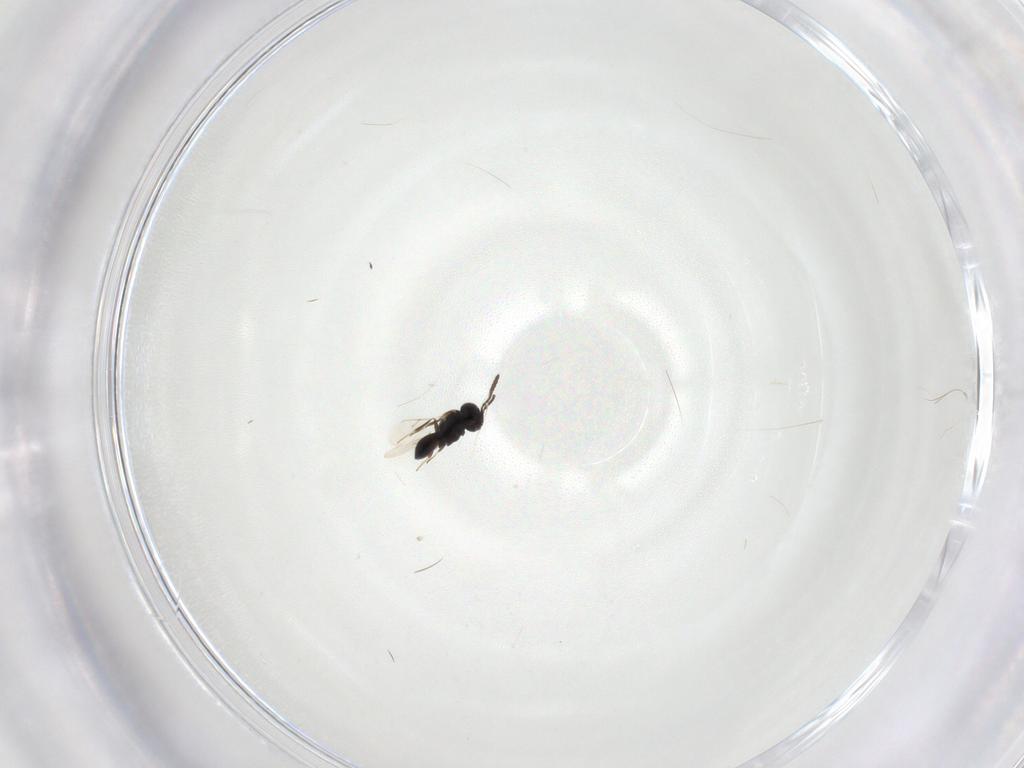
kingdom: Animalia
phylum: Arthropoda
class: Insecta
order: Hymenoptera
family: Scelionidae
